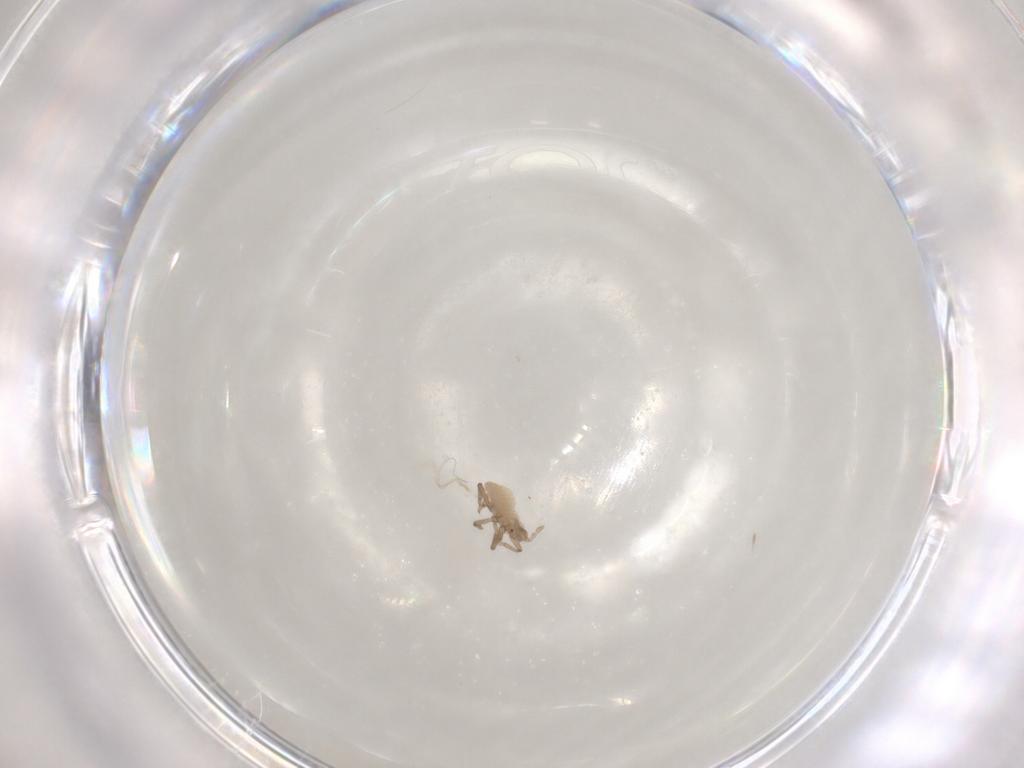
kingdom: Animalia
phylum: Arthropoda
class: Insecta
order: Hemiptera
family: Aphididae
